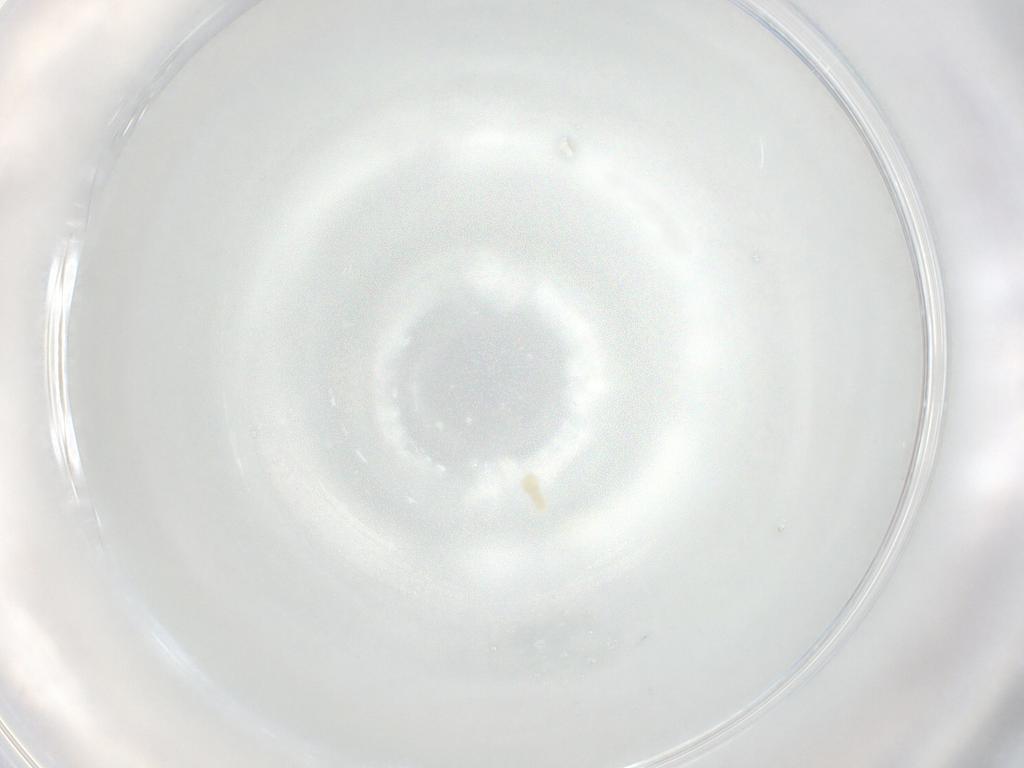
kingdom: Animalia
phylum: Arthropoda
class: Arachnida
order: Trombidiformes
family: Eupodidae
